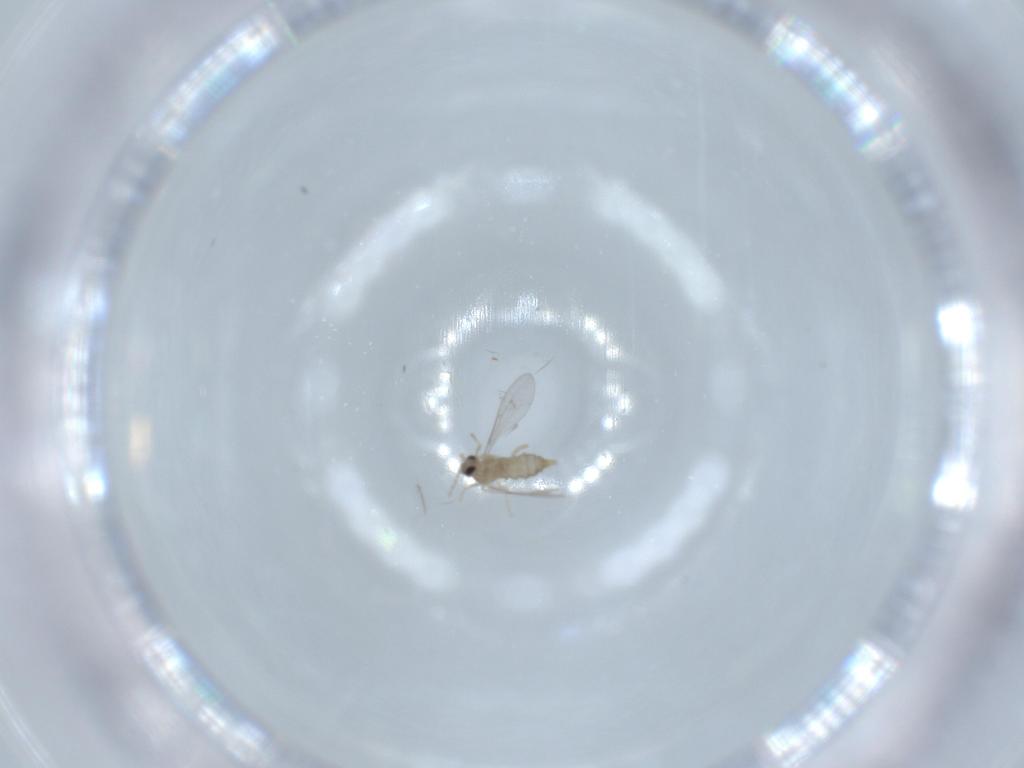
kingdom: Animalia
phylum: Arthropoda
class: Insecta
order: Diptera
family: Cecidomyiidae
